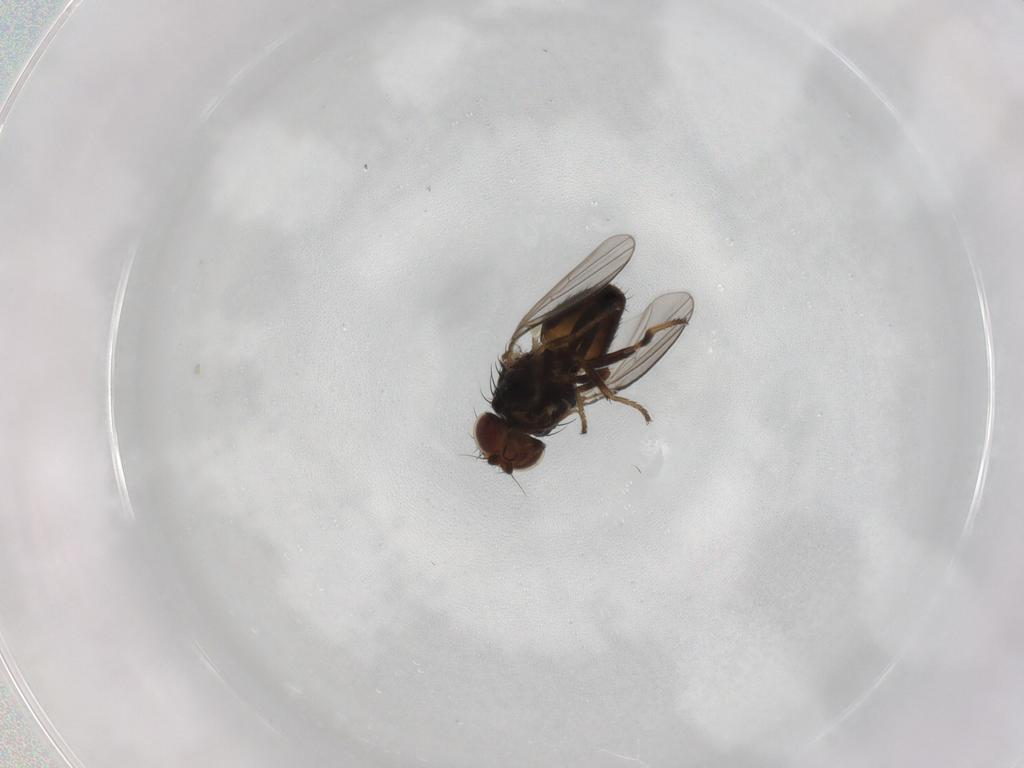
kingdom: Animalia
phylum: Arthropoda
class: Insecta
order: Diptera
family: Milichiidae
